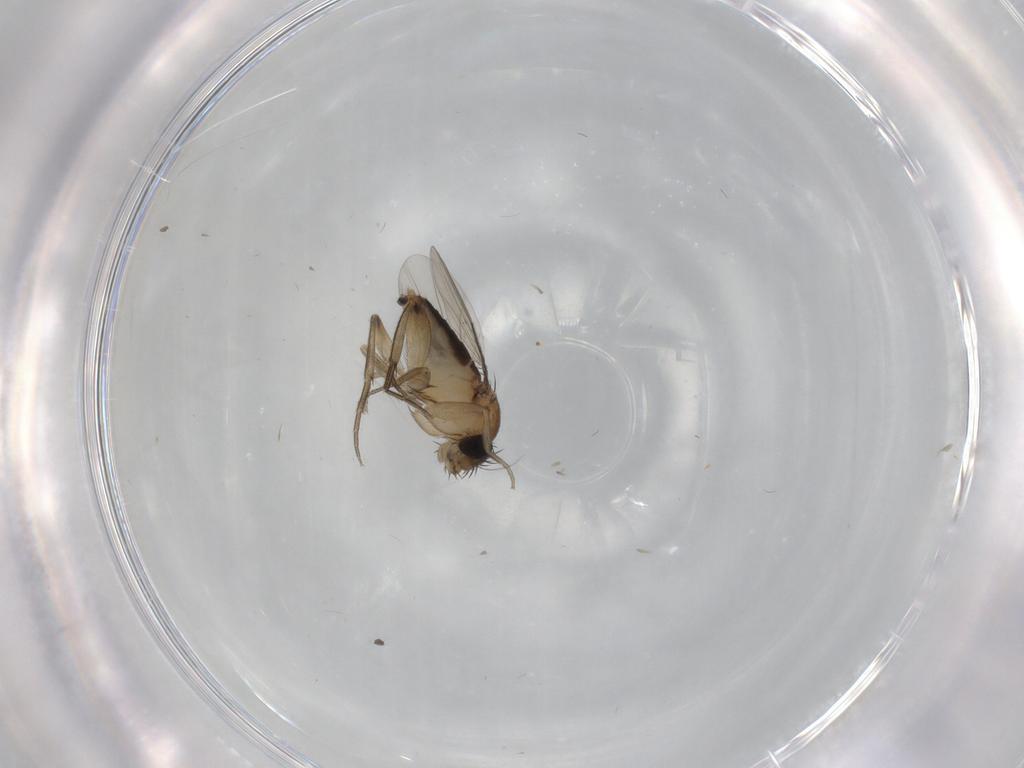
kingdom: Animalia
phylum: Arthropoda
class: Insecta
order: Diptera
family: Phoridae
